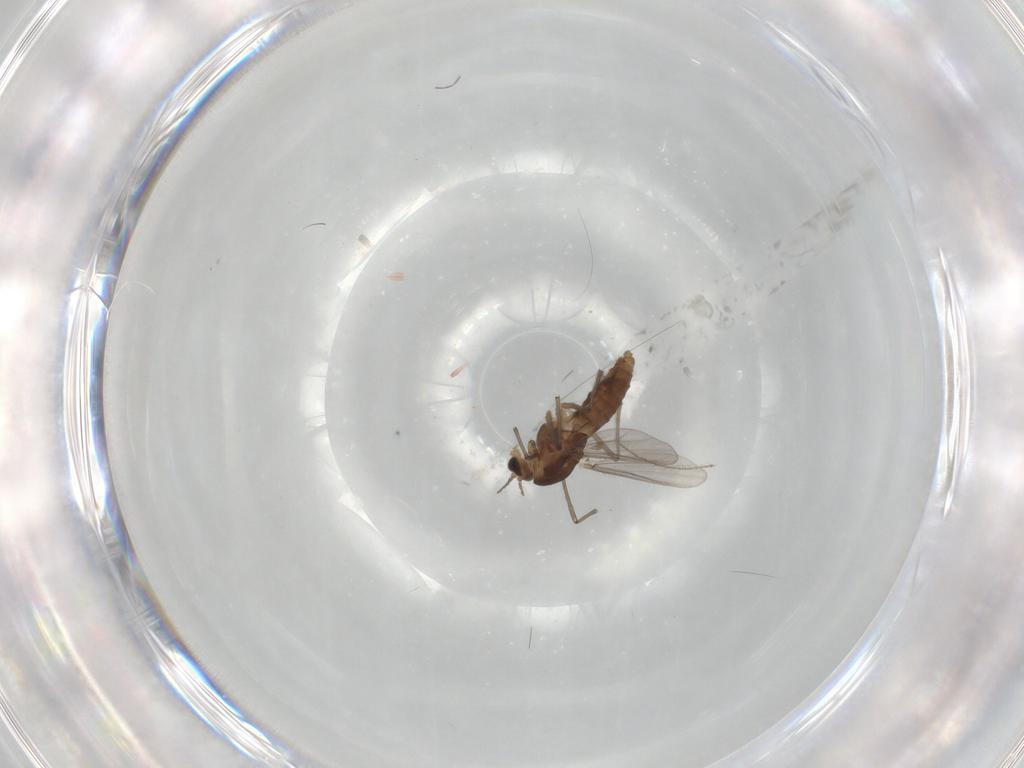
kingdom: Animalia
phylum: Arthropoda
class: Insecta
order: Diptera
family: Chironomidae
